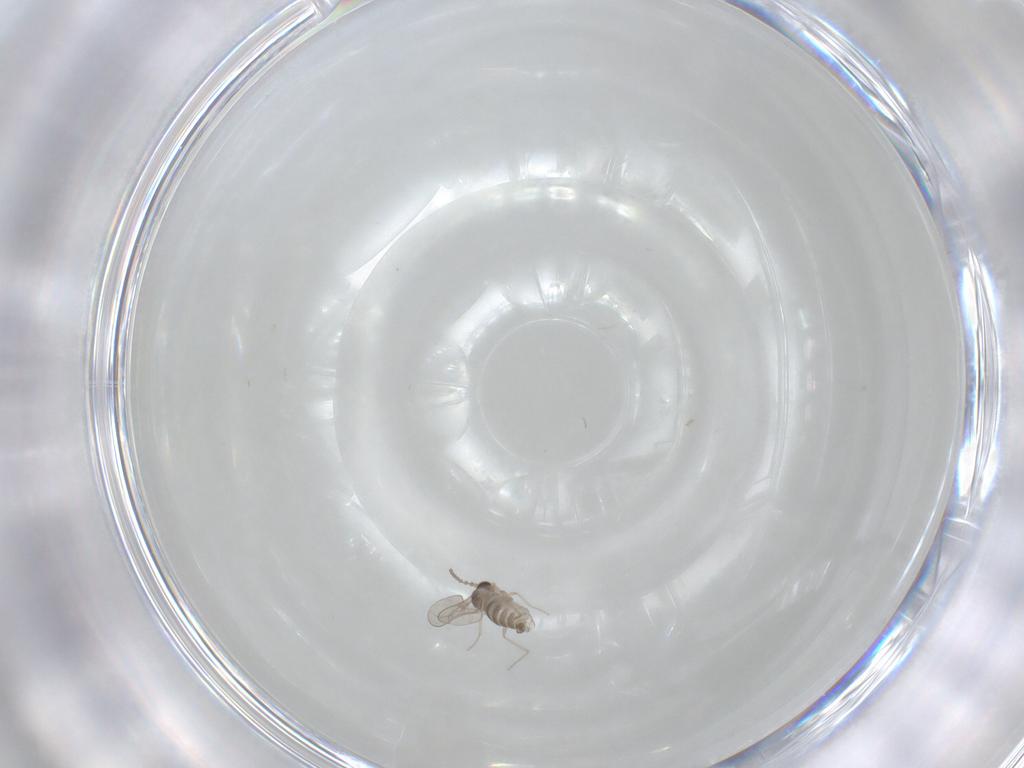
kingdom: Animalia
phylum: Arthropoda
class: Insecta
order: Diptera
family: Cecidomyiidae
